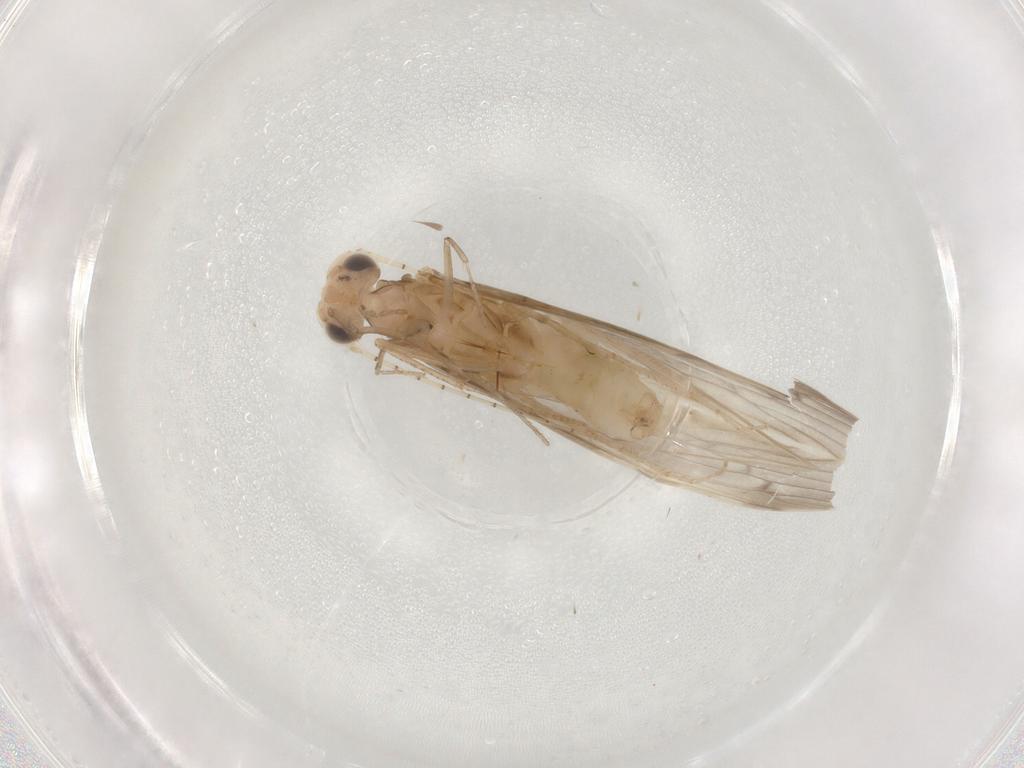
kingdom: Animalia
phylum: Arthropoda
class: Insecta
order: Trichoptera
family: Leptoceridae
